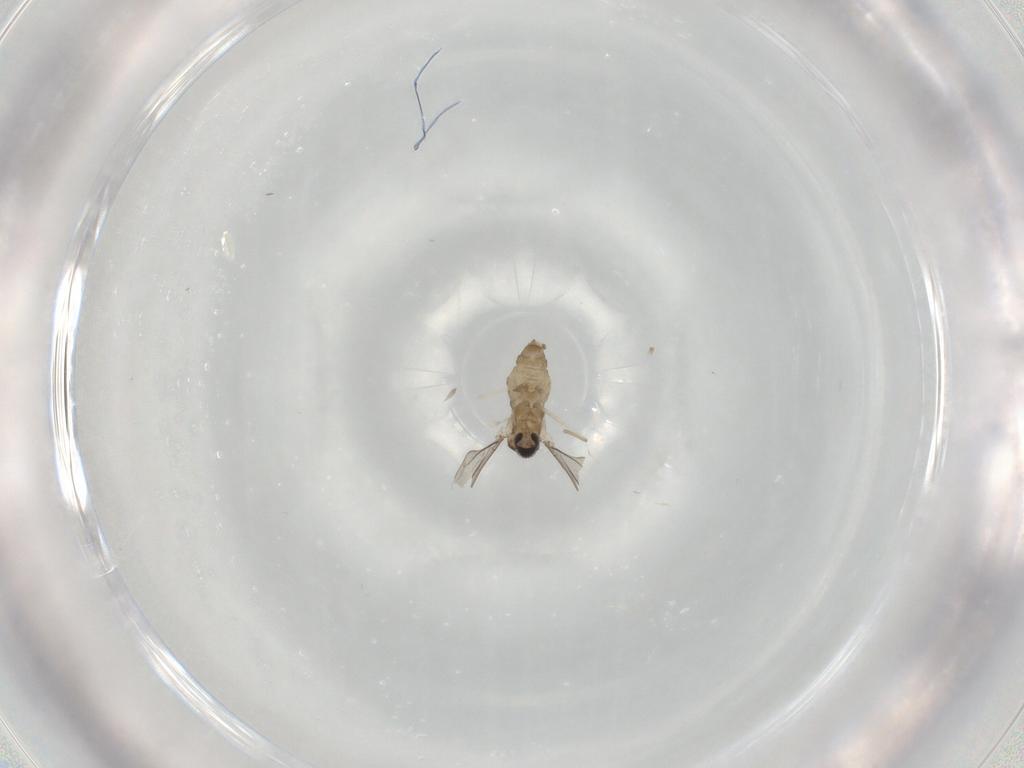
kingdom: Animalia
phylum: Arthropoda
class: Insecta
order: Diptera
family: Cecidomyiidae
